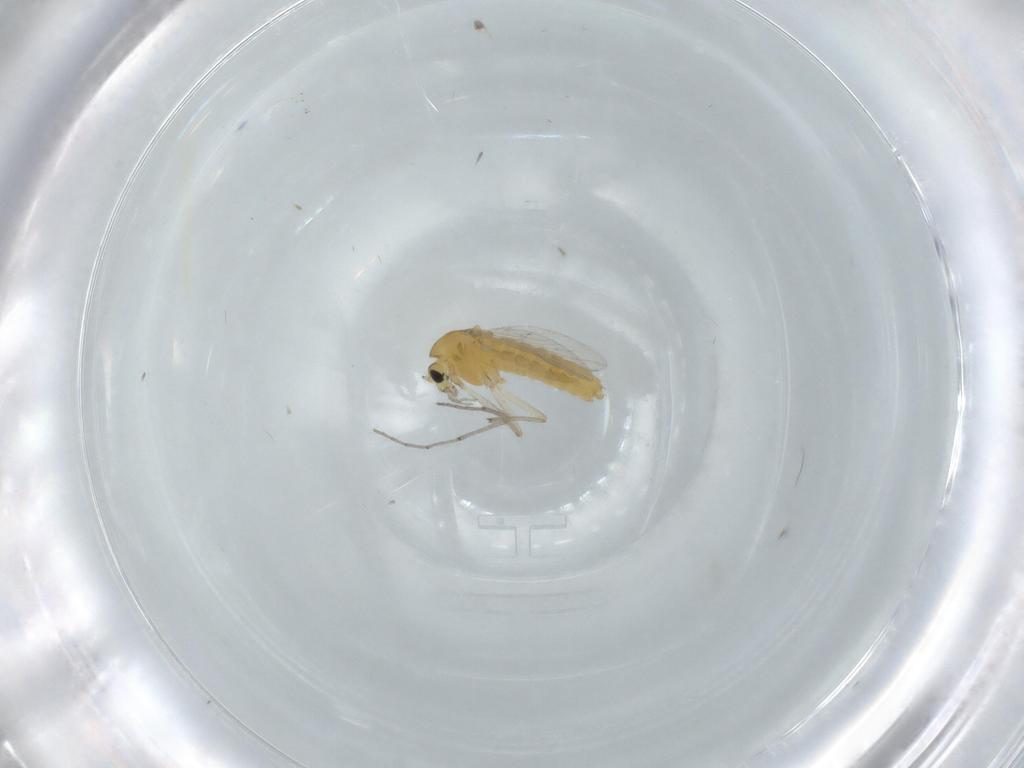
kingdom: Animalia
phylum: Arthropoda
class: Insecta
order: Diptera
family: Chironomidae
